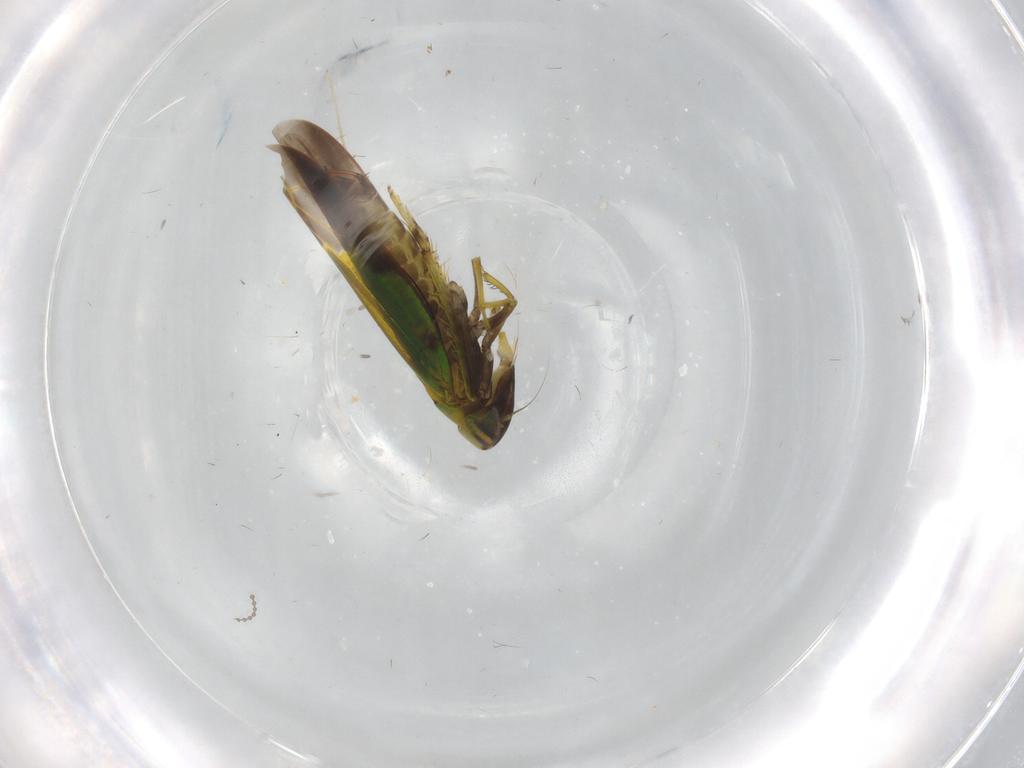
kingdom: Animalia
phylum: Arthropoda
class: Insecta
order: Hemiptera
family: Cicadellidae
